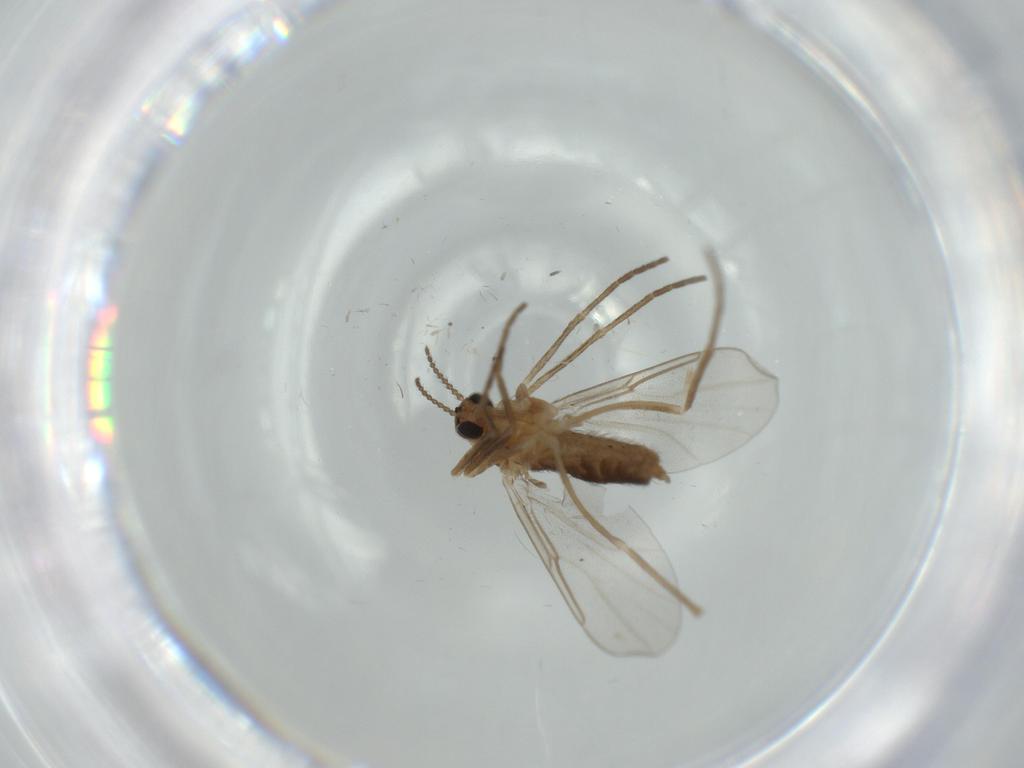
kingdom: Animalia
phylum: Arthropoda
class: Insecta
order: Diptera
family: Cecidomyiidae
